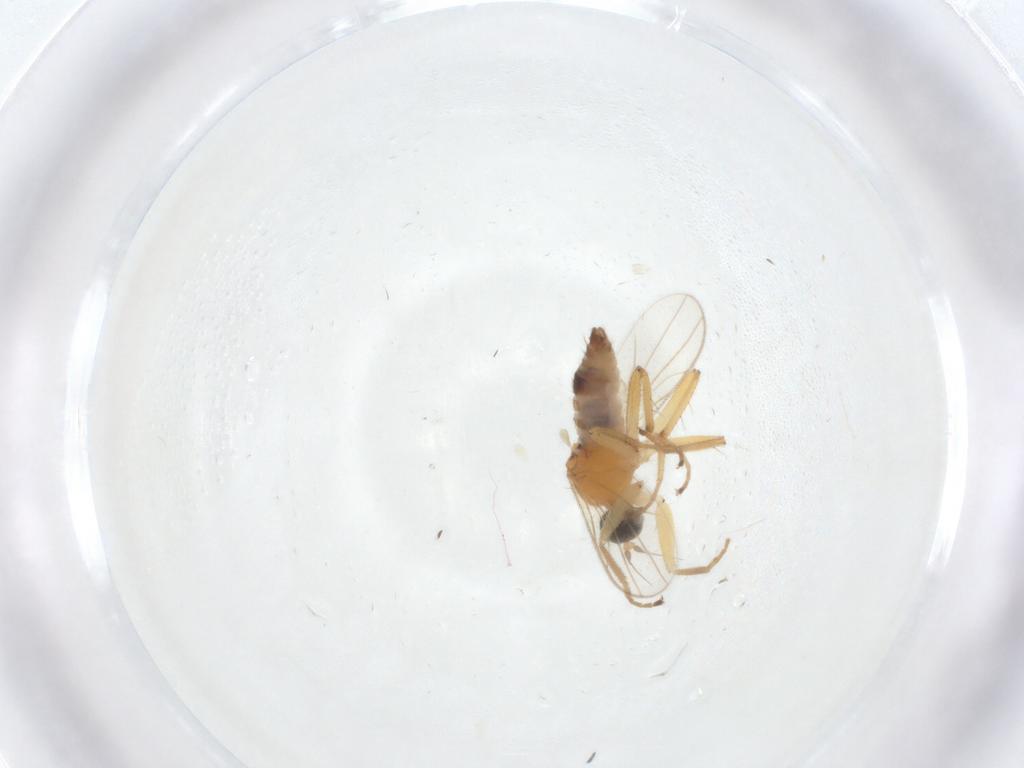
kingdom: Animalia
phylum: Arthropoda
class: Insecta
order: Diptera
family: Hybotidae
